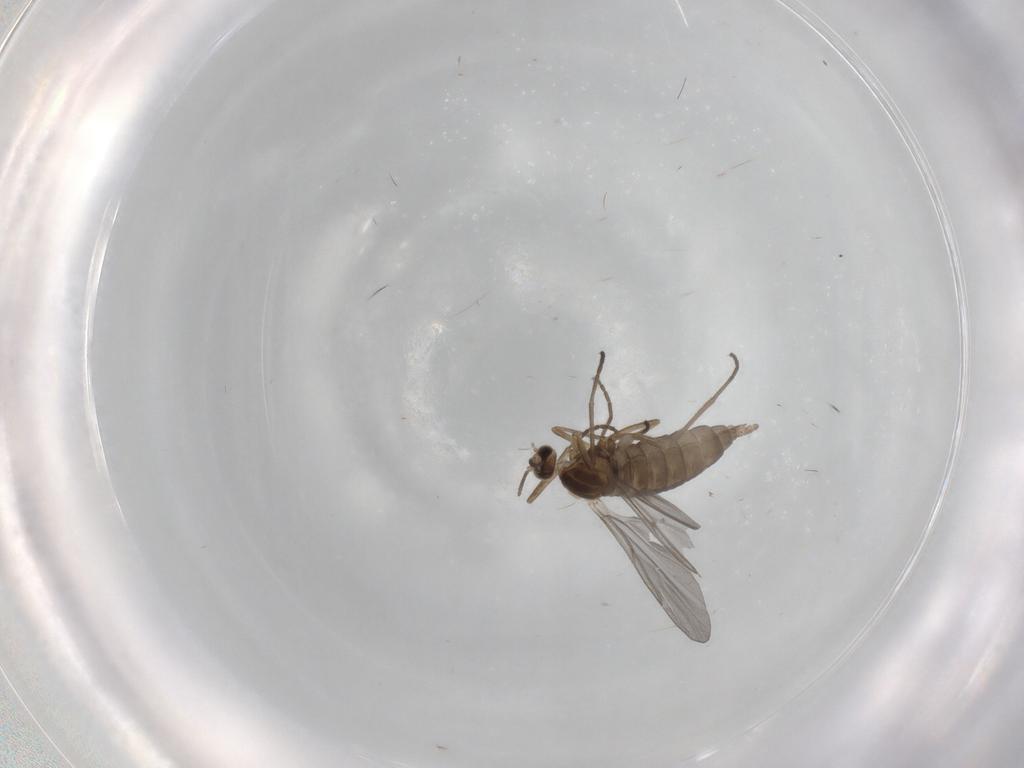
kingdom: Animalia
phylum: Arthropoda
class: Insecta
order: Diptera
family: Cecidomyiidae
